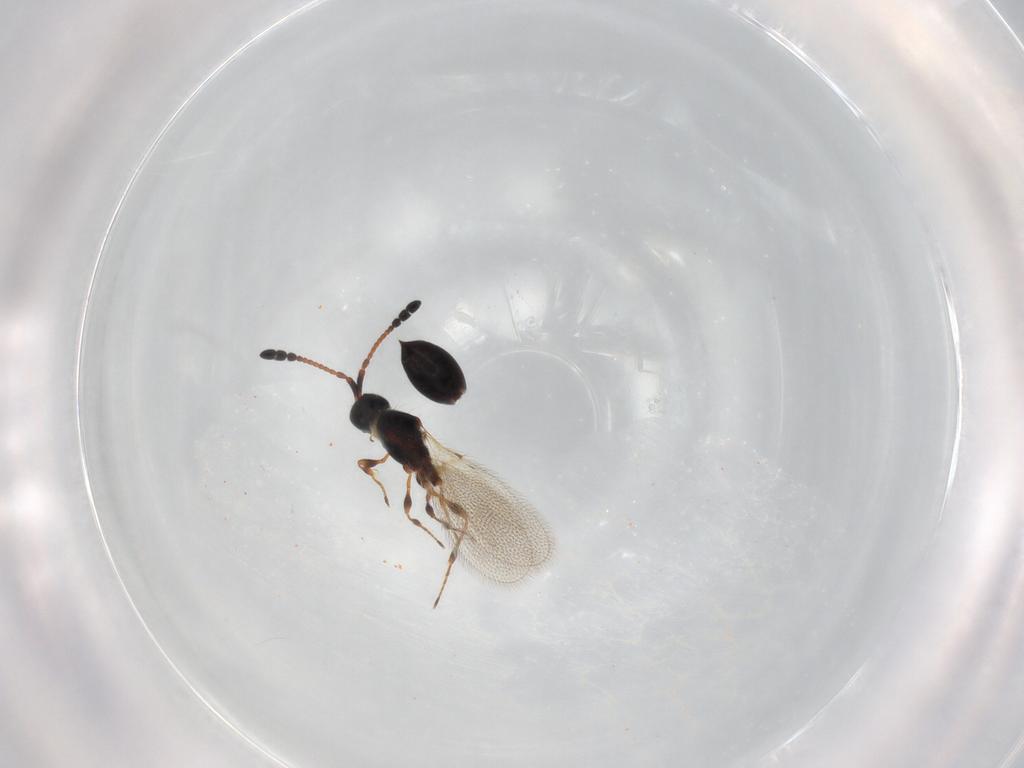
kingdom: Animalia
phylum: Arthropoda
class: Insecta
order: Hymenoptera
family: Diapriidae
